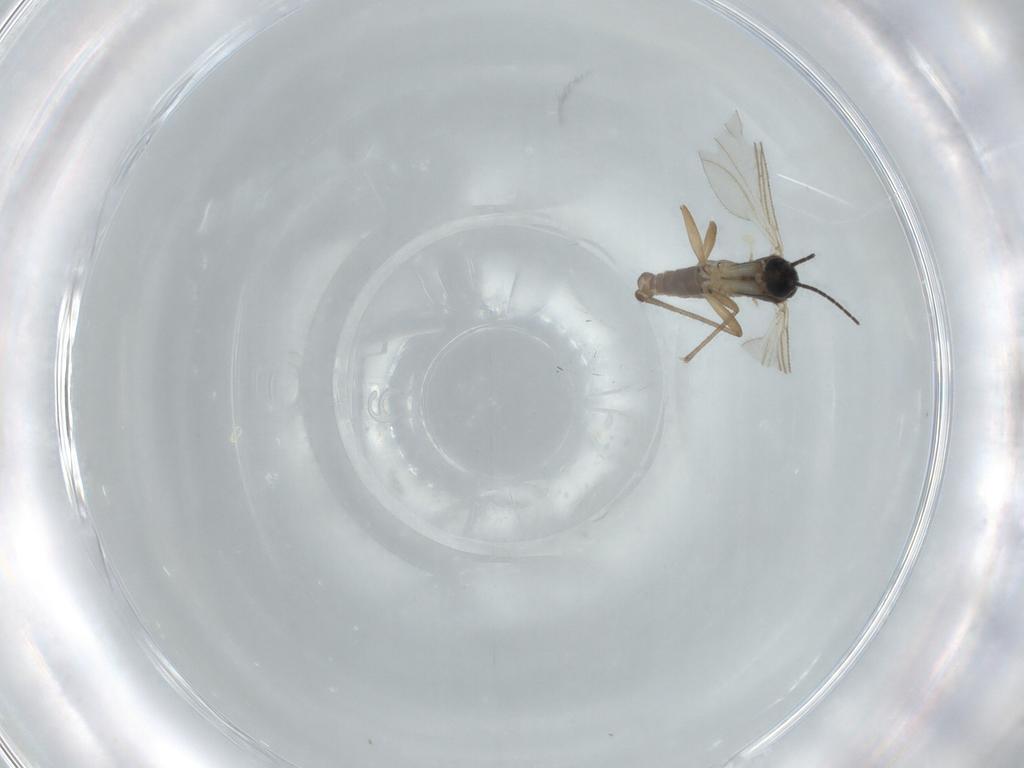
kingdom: Animalia
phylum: Arthropoda
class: Insecta
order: Diptera
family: Sciaridae
